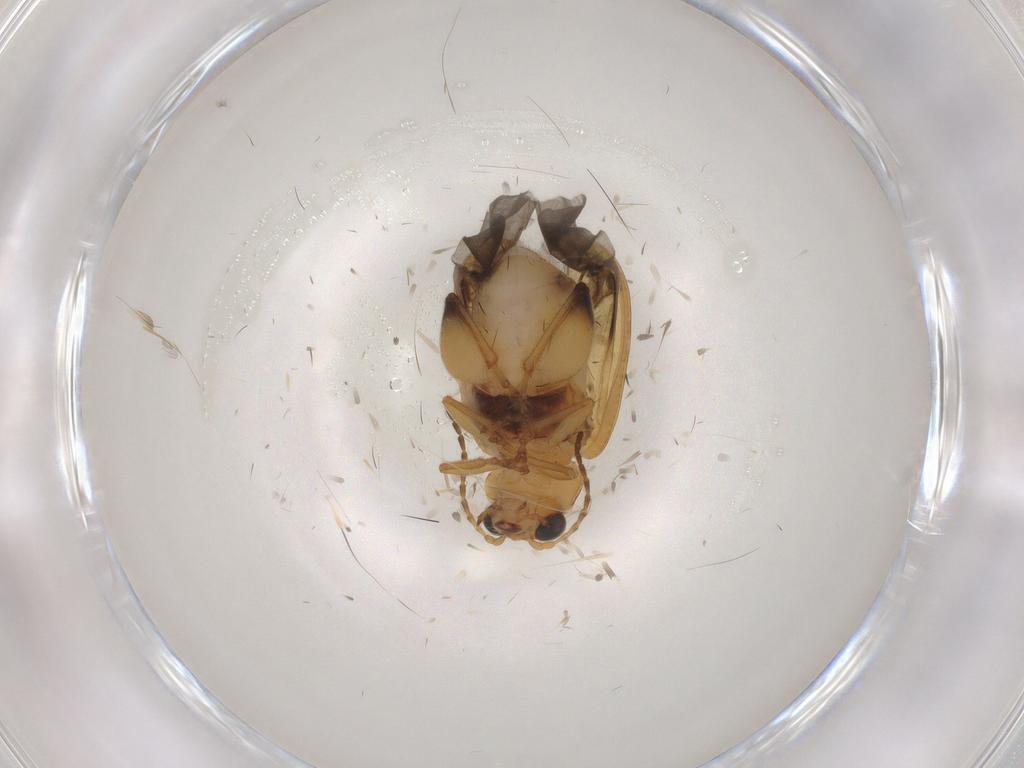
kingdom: Animalia
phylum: Arthropoda
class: Insecta
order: Coleoptera
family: Chrysomelidae
